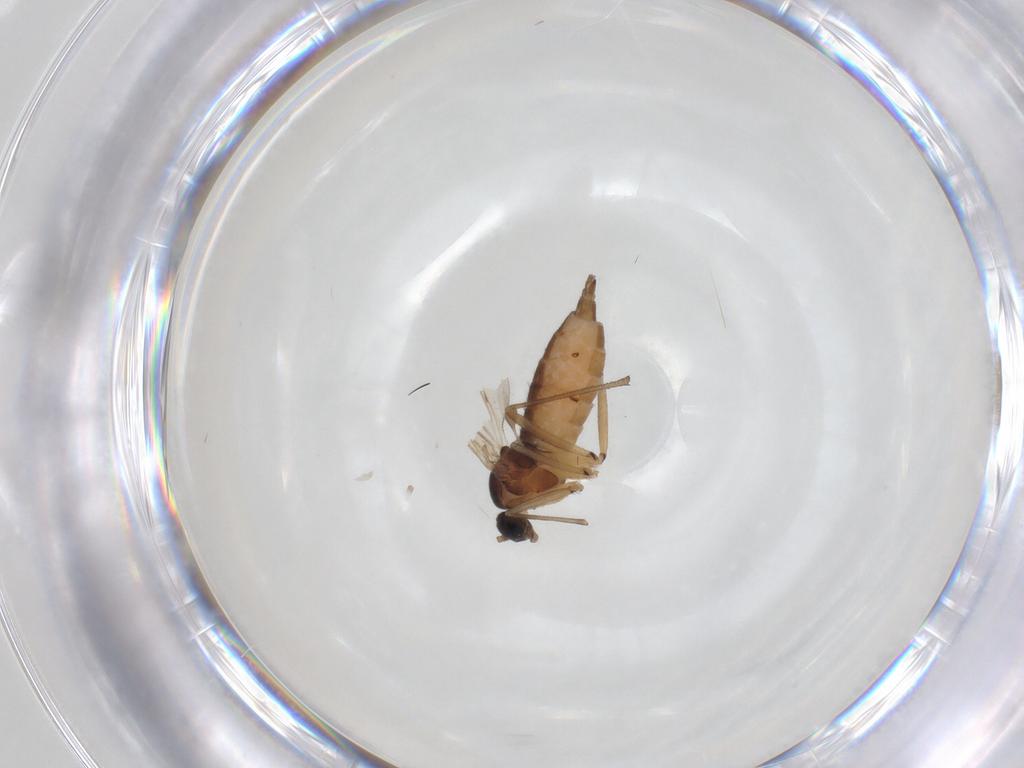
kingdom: Animalia
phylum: Arthropoda
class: Insecta
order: Diptera
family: Sciaridae
